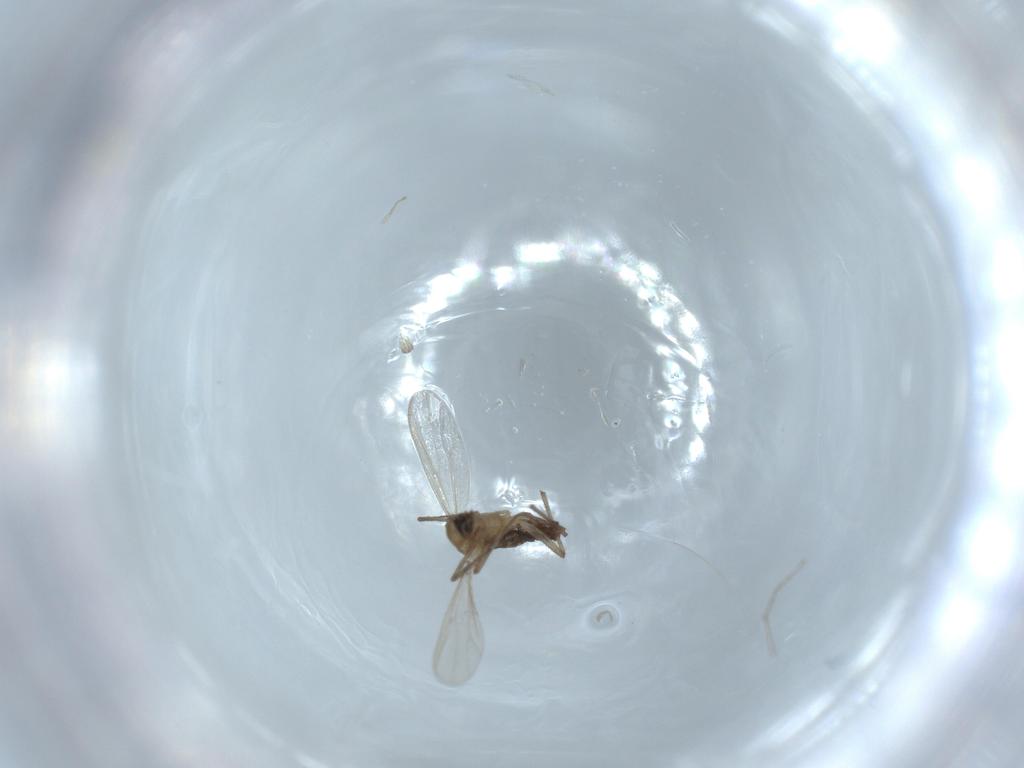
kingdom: Animalia
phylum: Arthropoda
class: Insecta
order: Diptera
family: Chironomidae
